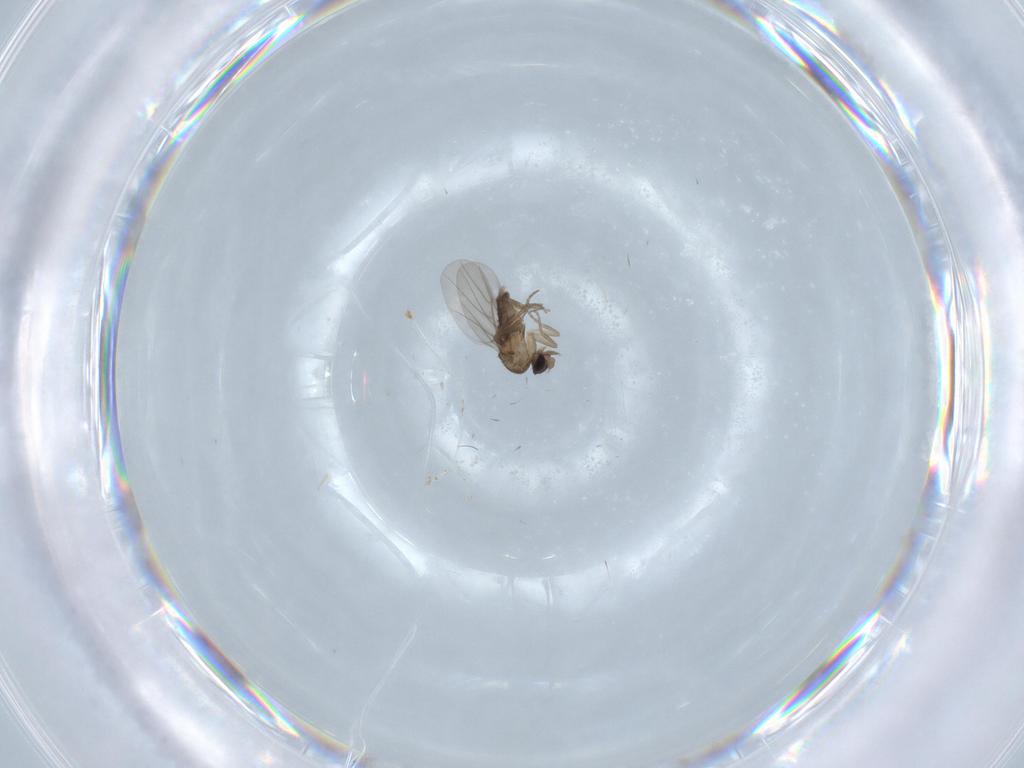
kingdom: Animalia
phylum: Arthropoda
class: Insecta
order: Diptera
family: Phoridae
